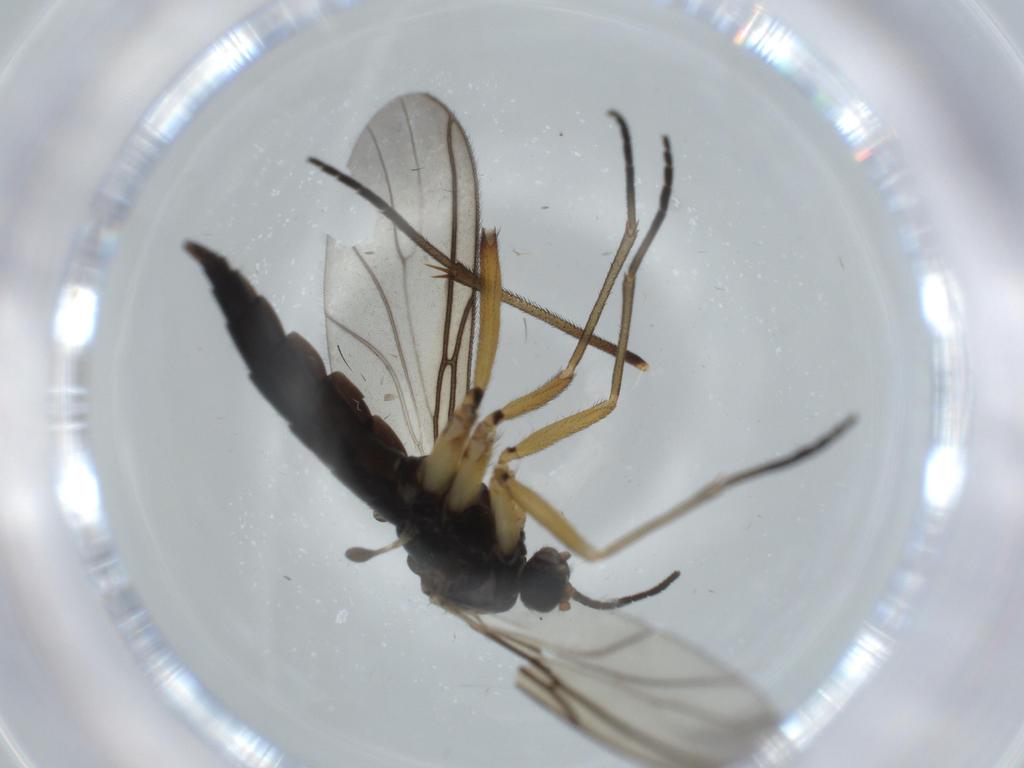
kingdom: Animalia
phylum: Arthropoda
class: Insecta
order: Diptera
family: Sciaridae
